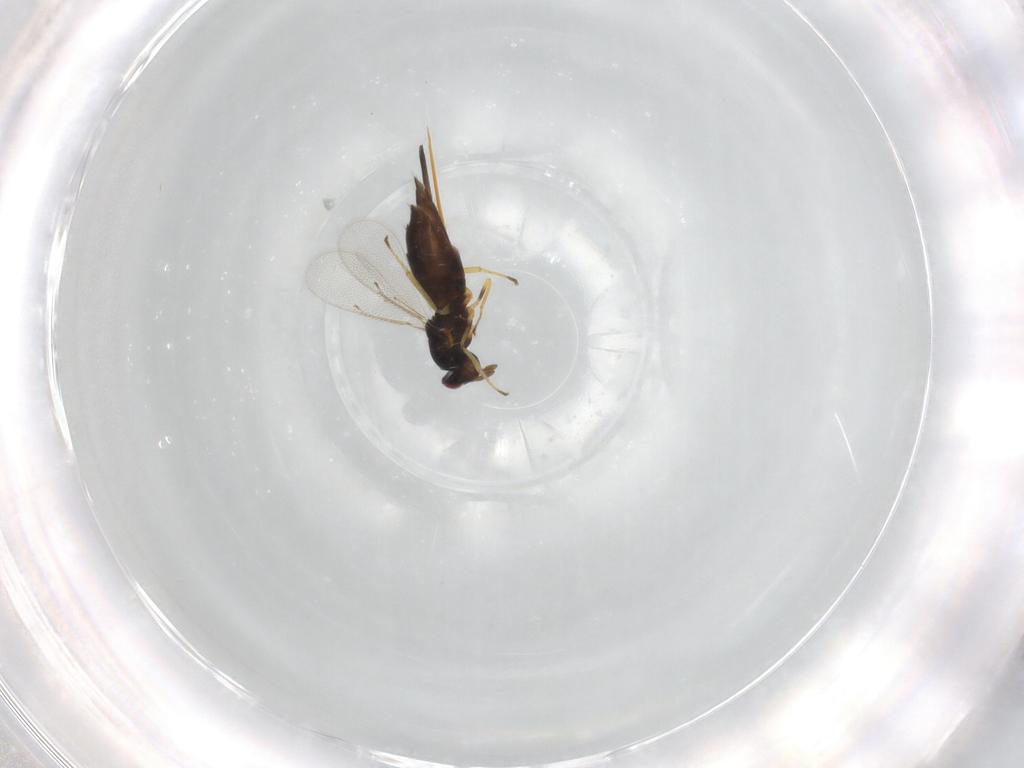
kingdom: Animalia
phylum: Arthropoda
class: Insecta
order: Hymenoptera
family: Eulophidae
